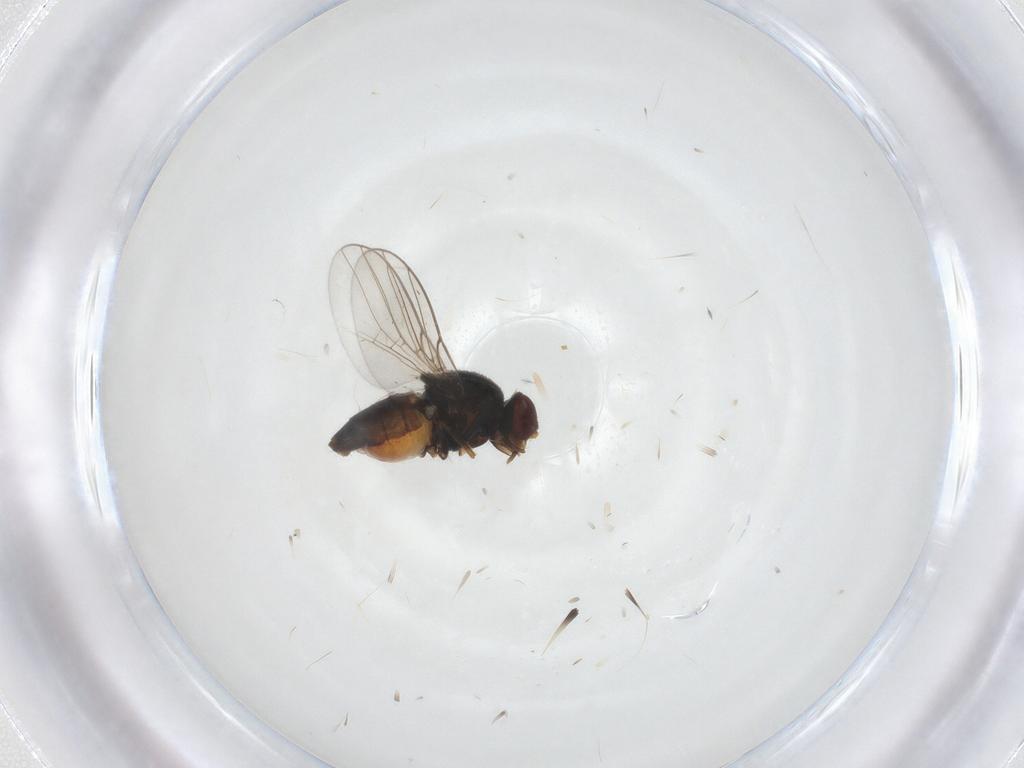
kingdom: Animalia
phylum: Arthropoda
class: Insecta
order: Diptera
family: Chloropidae
